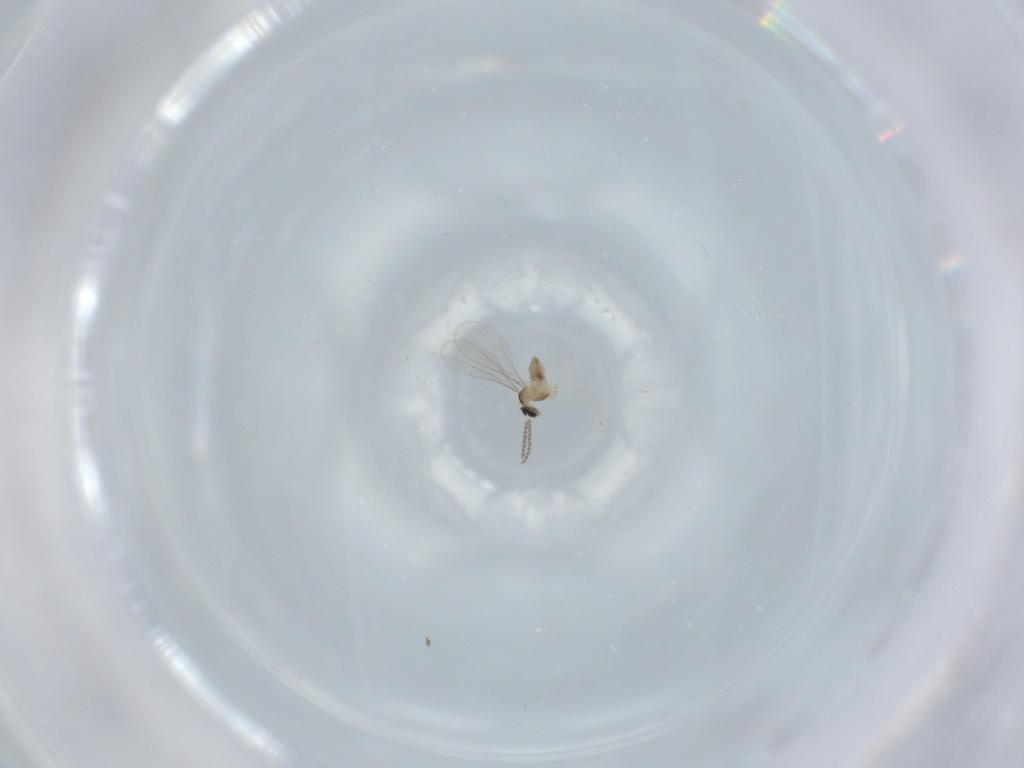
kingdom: Animalia
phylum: Arthropoda
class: Insecta
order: Diptera
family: Cecidomyiidae
